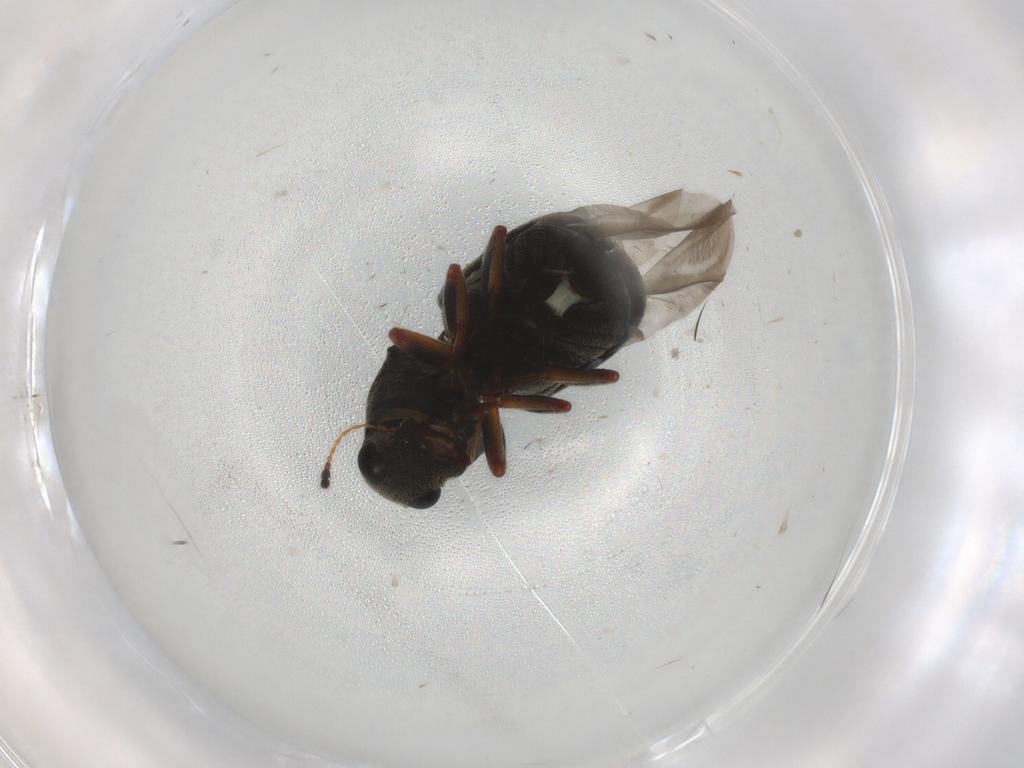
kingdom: Animalia
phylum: Arthropoda
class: Insecta
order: Coleoptera
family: Anthribidae
